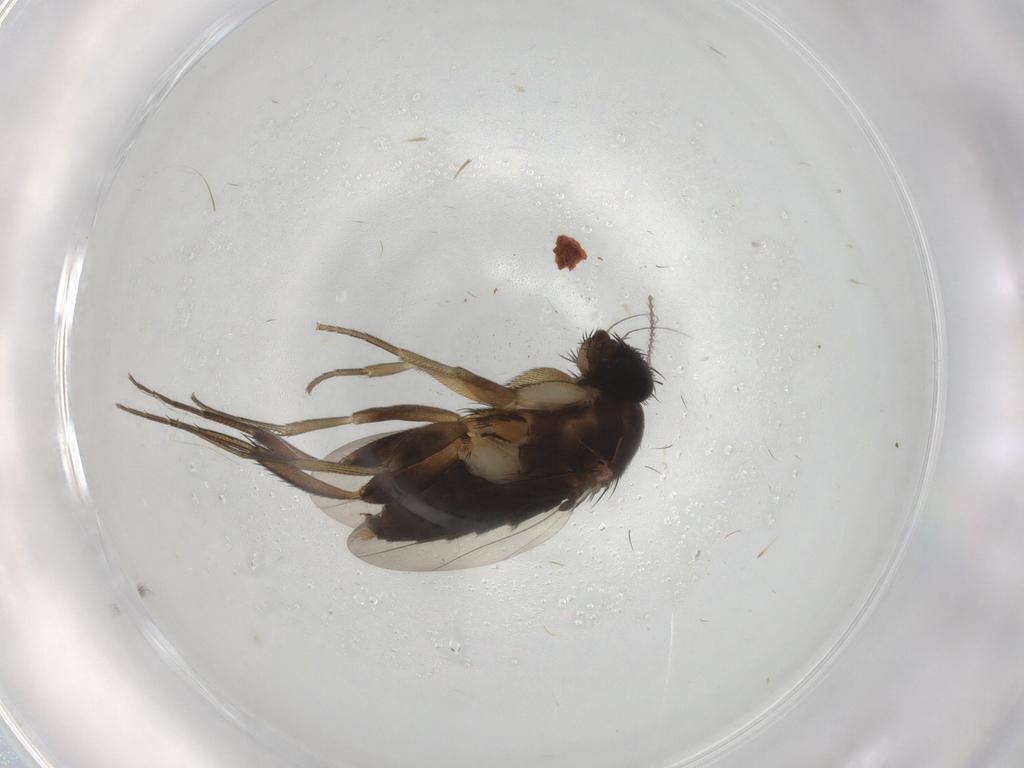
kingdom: Animalia
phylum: Arthropoda
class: Insecta
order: Diptera
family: Phoridae
